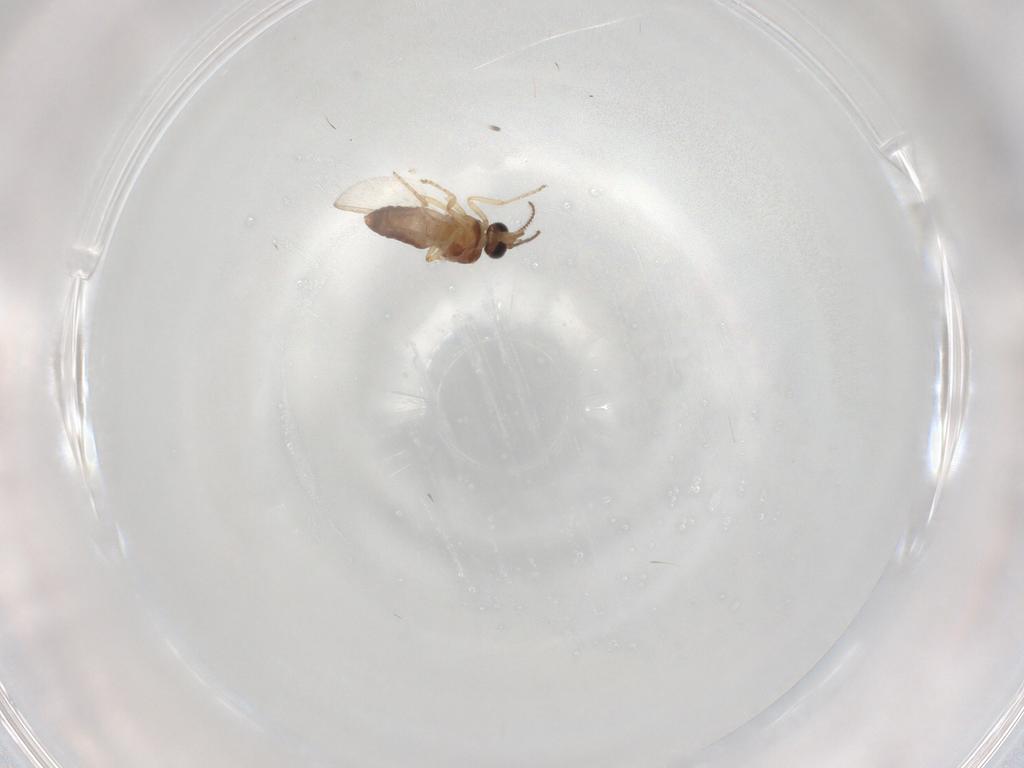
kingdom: Animalia
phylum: Arthropoda
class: Insecta
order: Diptera
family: Ceratopogonidae
